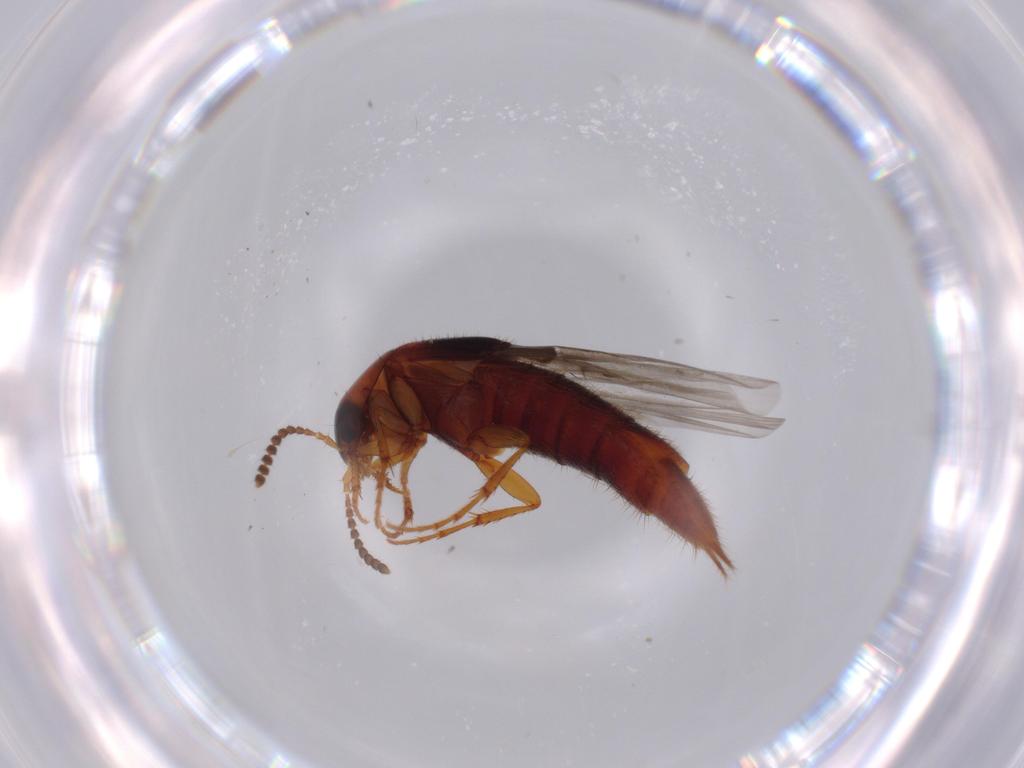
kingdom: Animalia
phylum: Arthropoda
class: Insecta
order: Coleoptera
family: Staphylinidae
